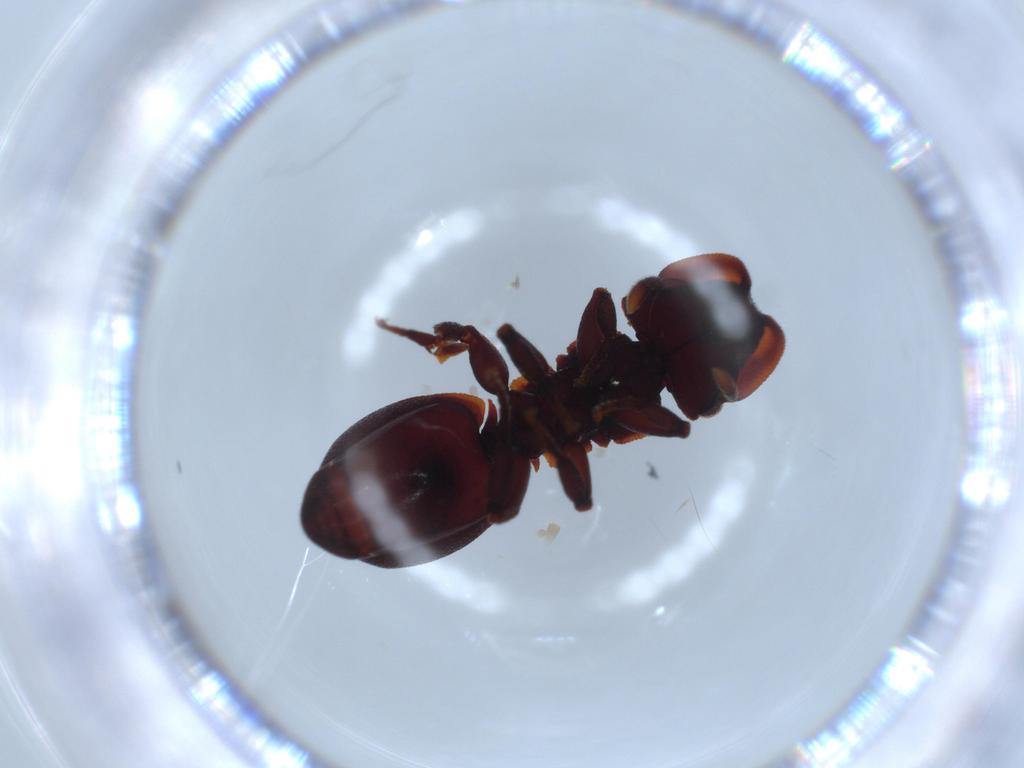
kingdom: Animalia
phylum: Arthropoda
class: Insecta
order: Hymenoptera
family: Formicidae
